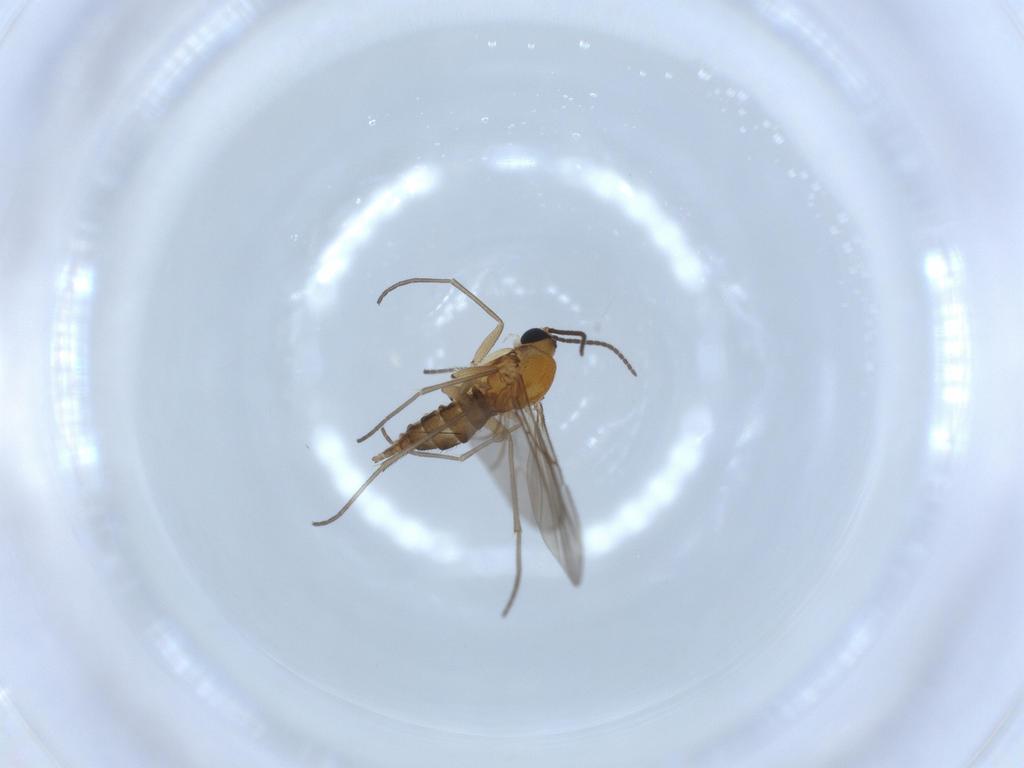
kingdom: Animalia
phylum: Arthropoda
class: Insecta
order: Diptera
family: Sciaridae
